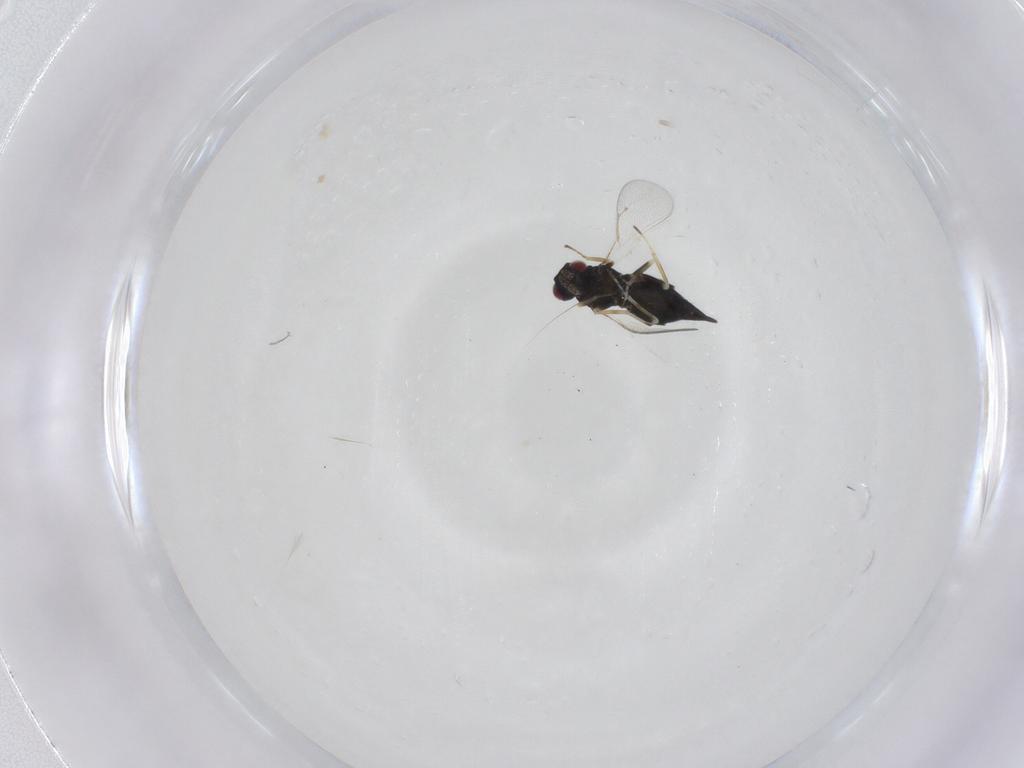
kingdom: Animalia
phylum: Arthropoda
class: Insecta
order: Hymenoptera
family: Eulophidae
